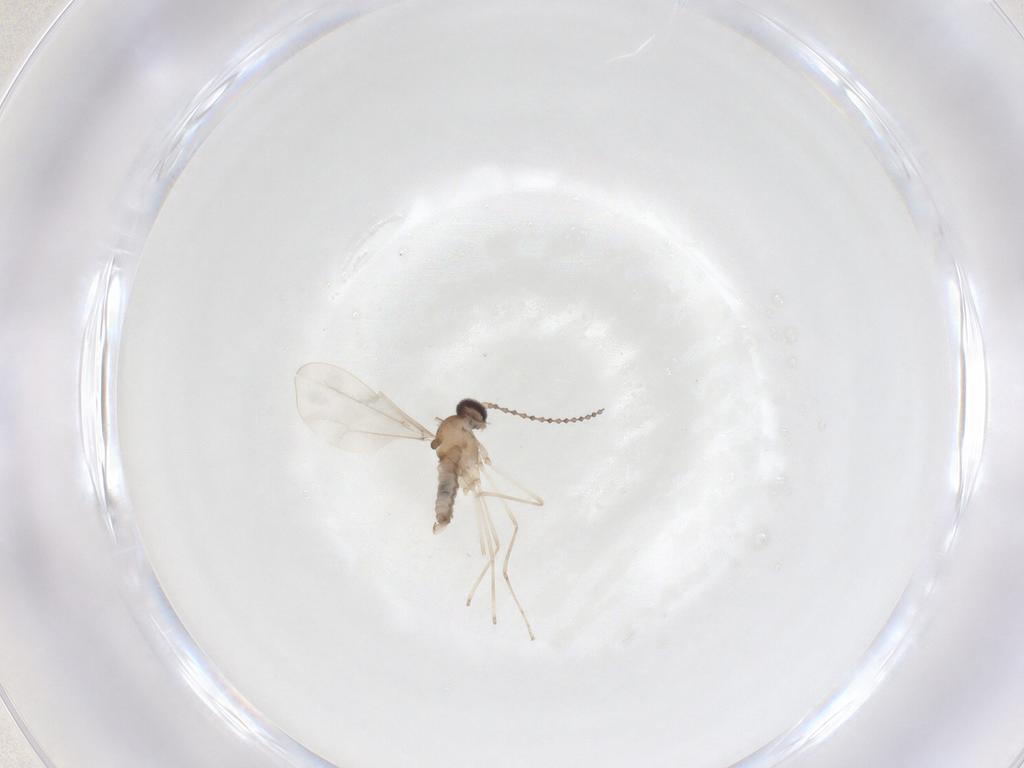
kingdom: Animalia
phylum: Arthropoda
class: Insecta
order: Diptera
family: Cecidomyiidae
